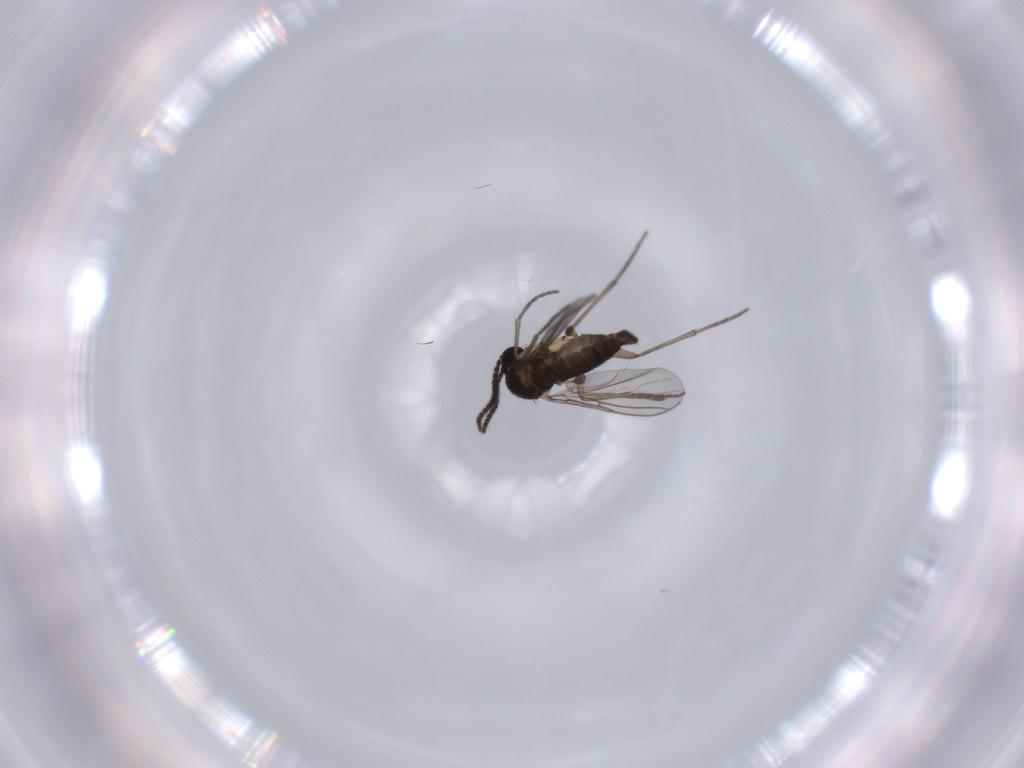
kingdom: Animalia
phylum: Arthropoda
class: Insecta
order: Diptera
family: Sciaridae
